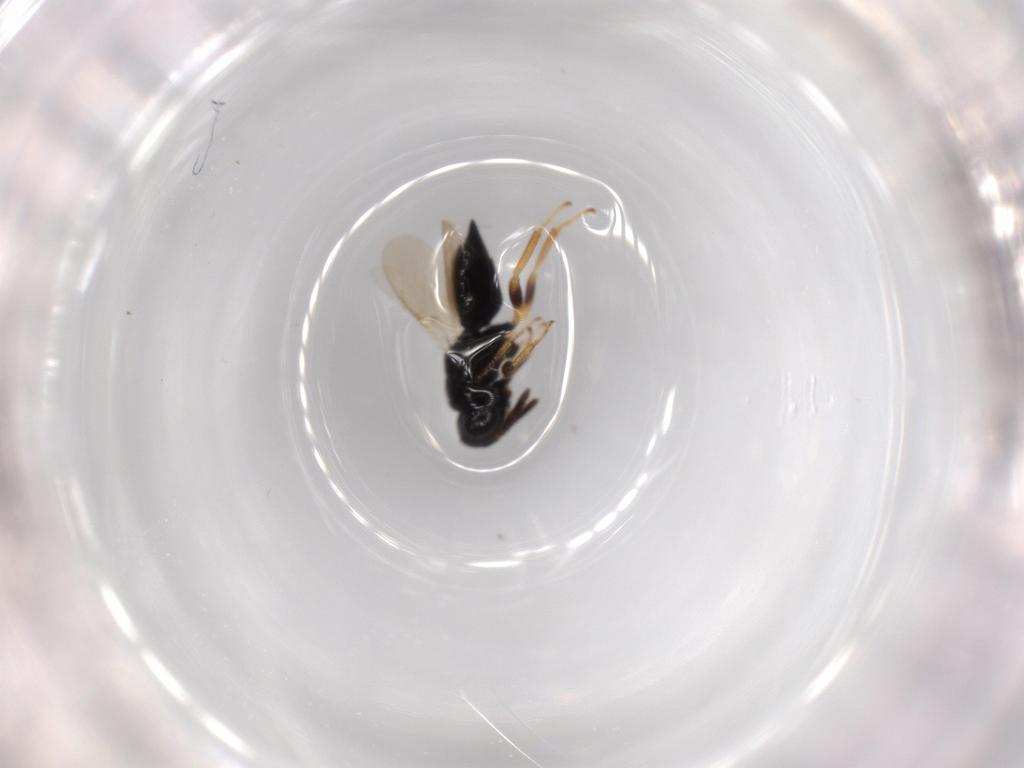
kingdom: Animalia
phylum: Arthropoda
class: Insecta
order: Hymenoptera
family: Pteromalidae
